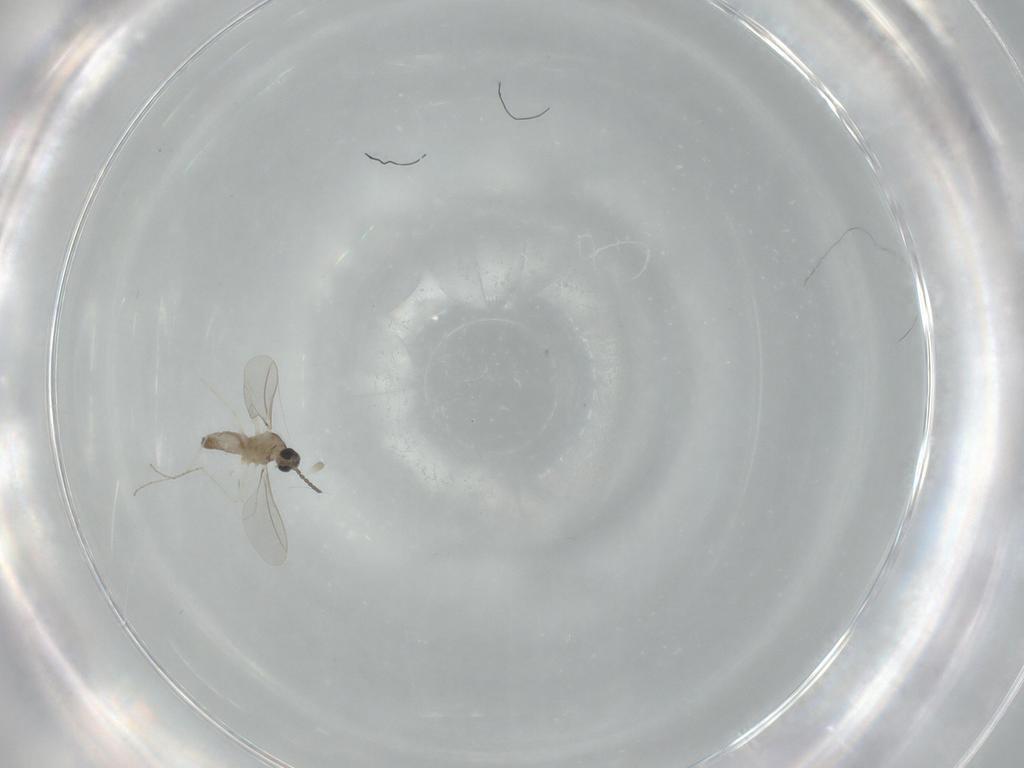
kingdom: Animalia
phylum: Arthropoda
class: Insecta
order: Diptera
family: Cecidomyiidae
